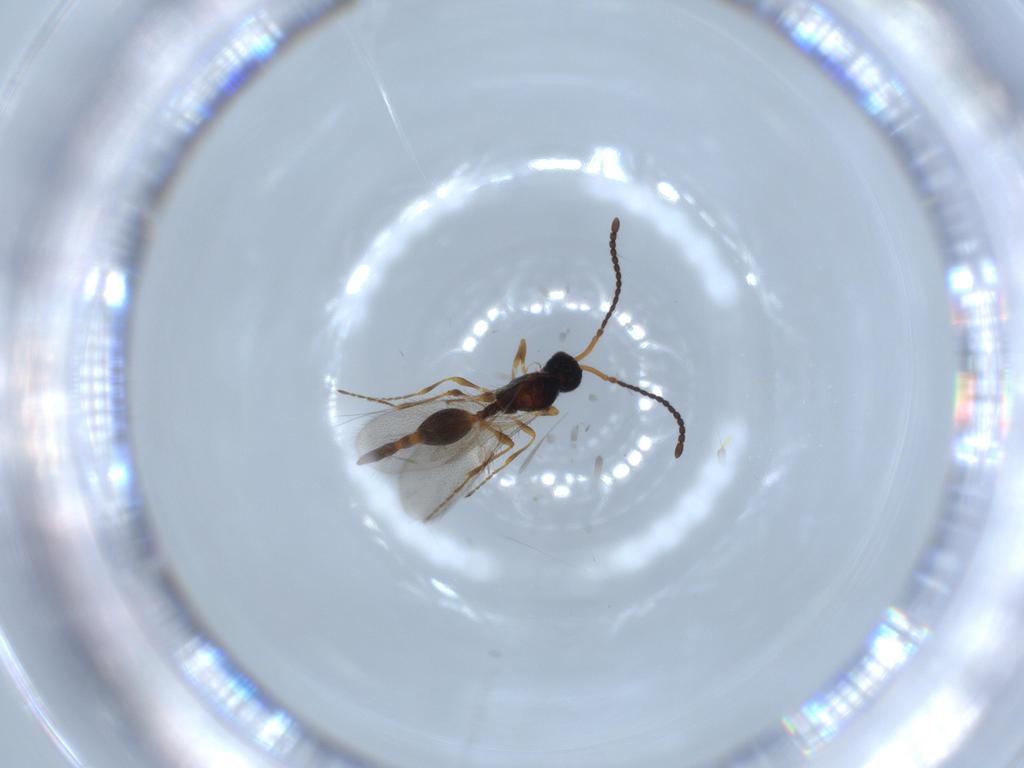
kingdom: Animalia
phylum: Arthropoda
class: Insecta
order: Hymenoptera
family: Diapriidae
